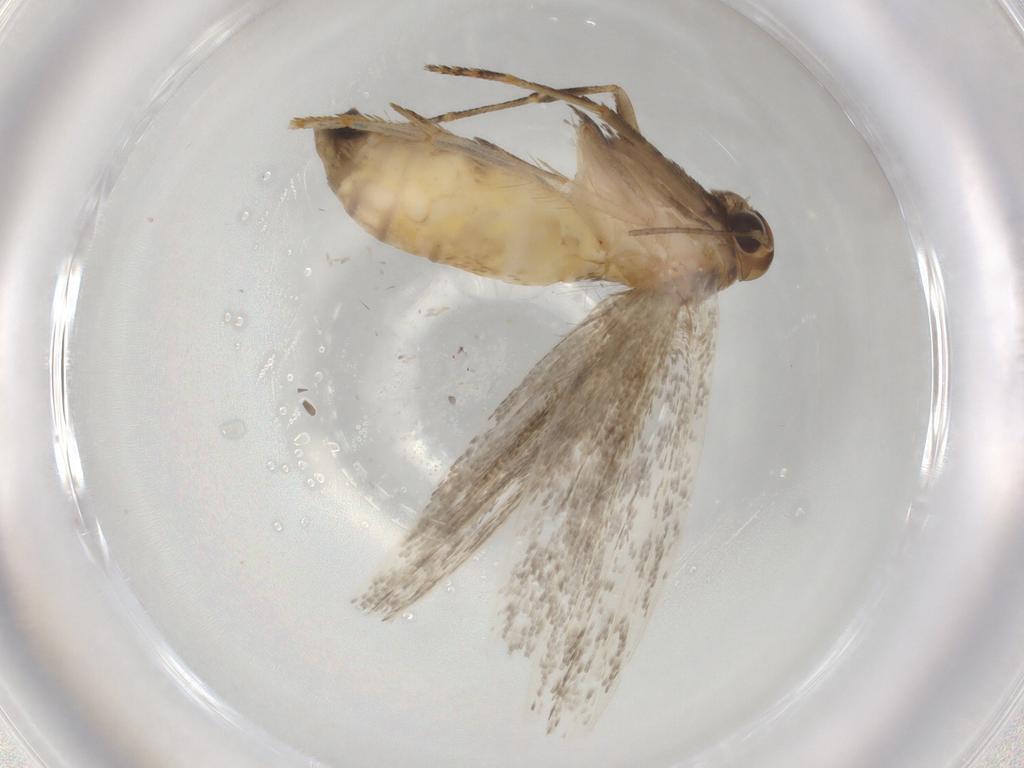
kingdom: Animalia
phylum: Arthropoda
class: Insecta
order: Lepidoptera
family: Epermeniidae
